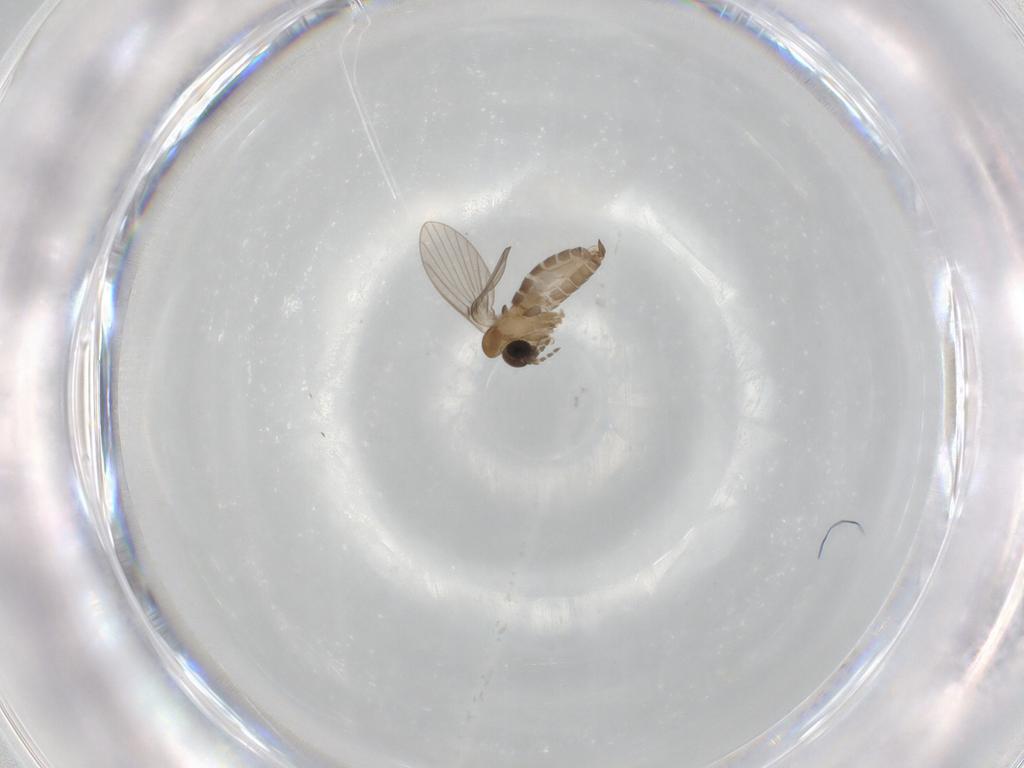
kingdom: Animalia
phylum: Arthropoda
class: Insecta
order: Diptera
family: Psychodidae
